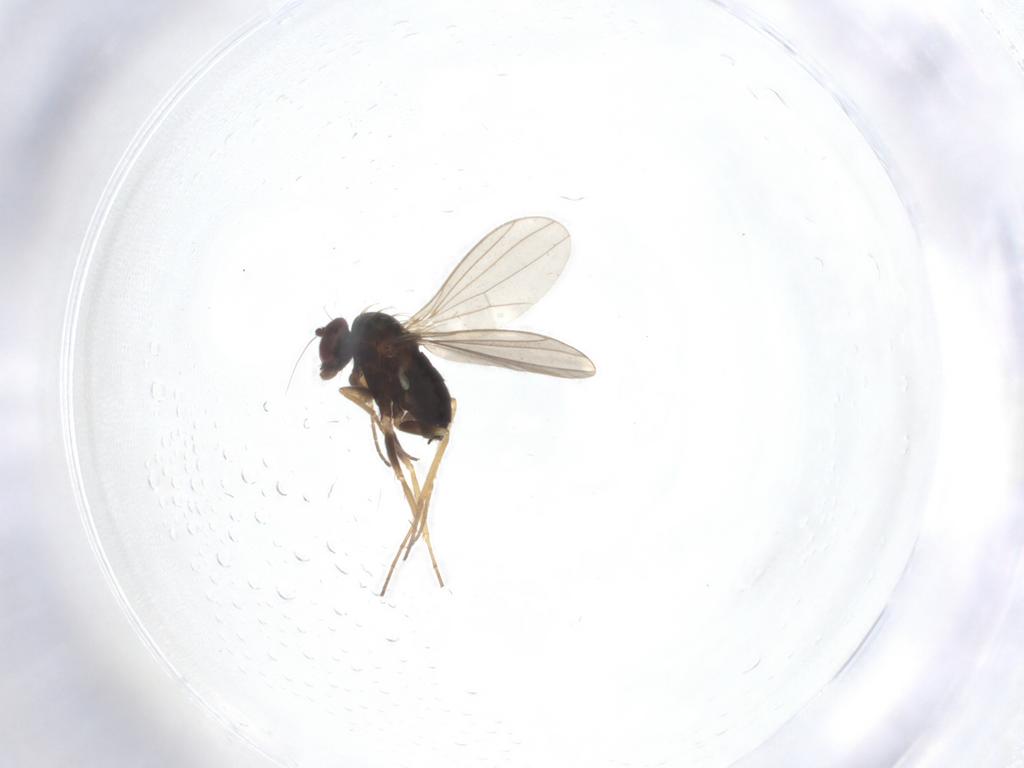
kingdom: Animalia
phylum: Arthropoda
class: Insecta
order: Diptera
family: Dolichopodidae
